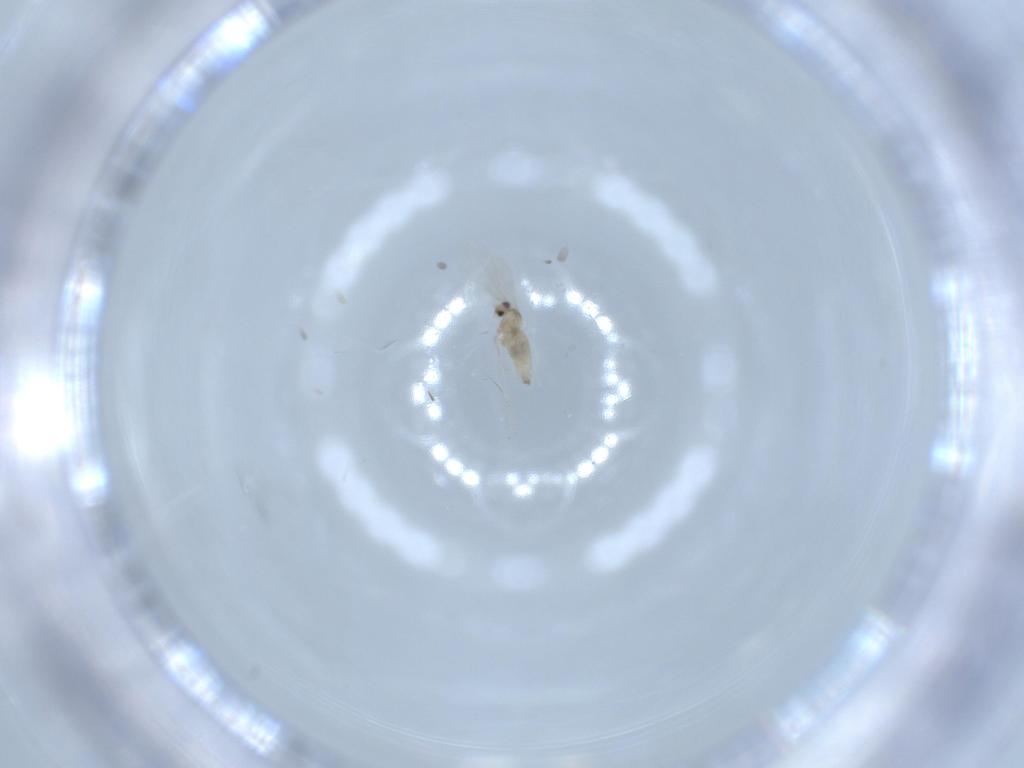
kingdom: Animalia
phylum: Arthropoda
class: Insecta
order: Diptera
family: Cecidomyiidae
